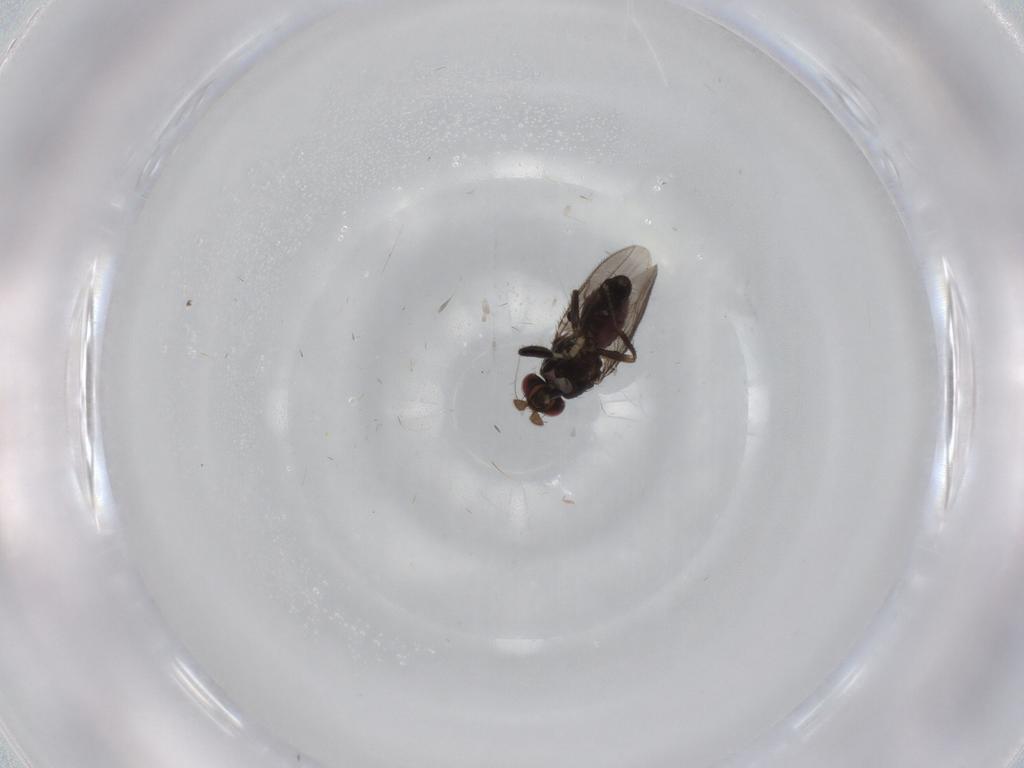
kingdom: Animalia
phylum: Arthropoda
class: Insecta
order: Diptera
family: Sphaeroceridae
